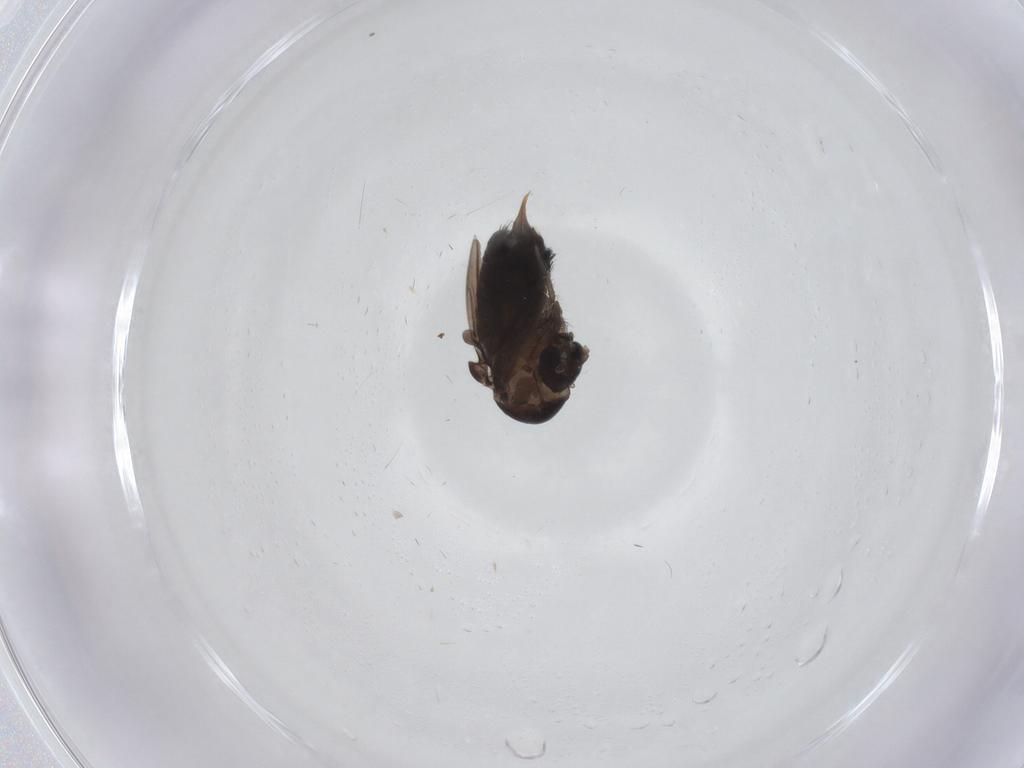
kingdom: Animalia
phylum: Arthropoda
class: Insecta
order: Diptera
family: Psychodidae
